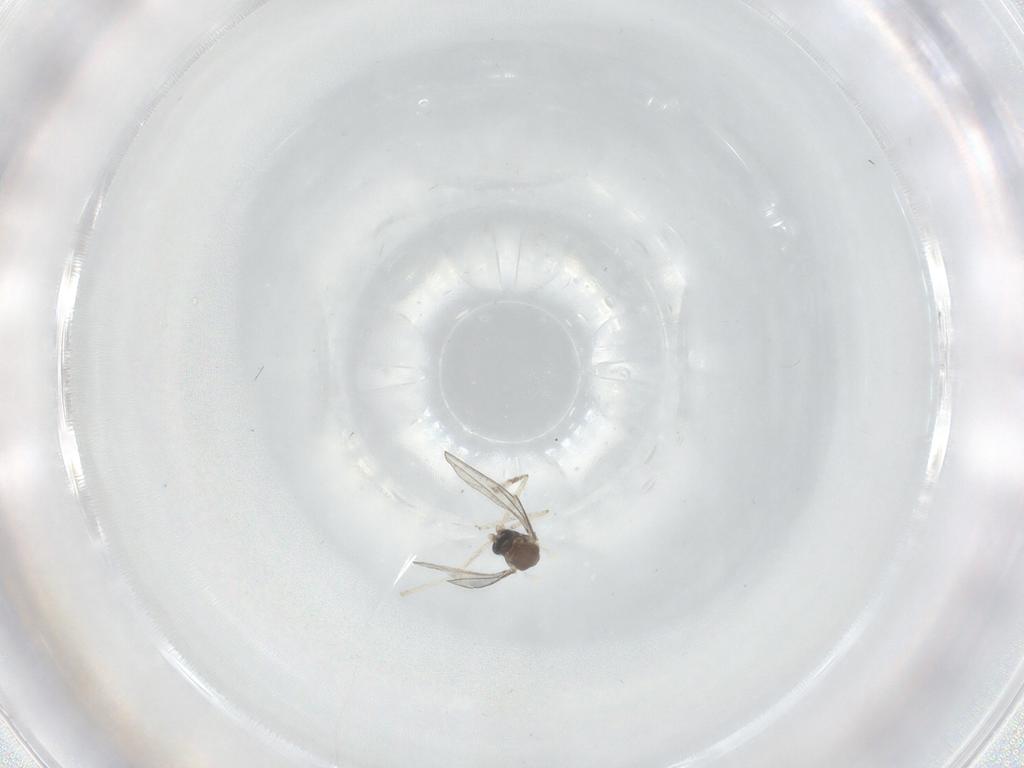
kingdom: Animalia
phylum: Arthropoda
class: Insecta
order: Diptera
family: Cecidomyiidae
